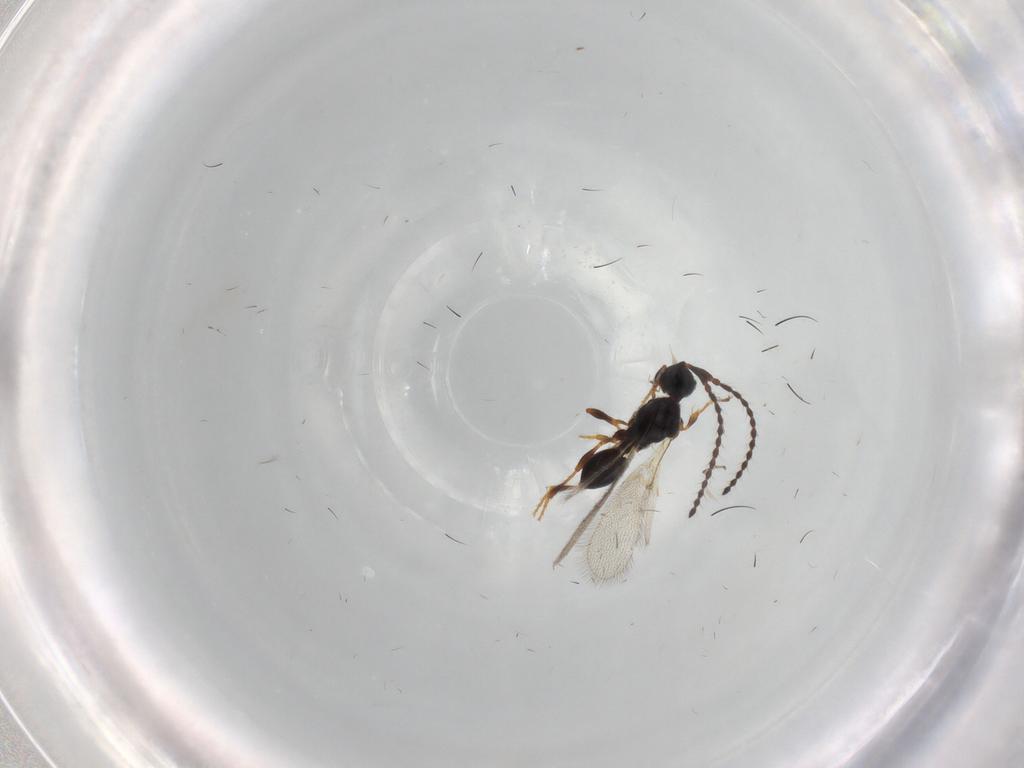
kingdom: Animalia
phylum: Arthropoda
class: Insecta
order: Hymenoptera
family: Diapriidae
